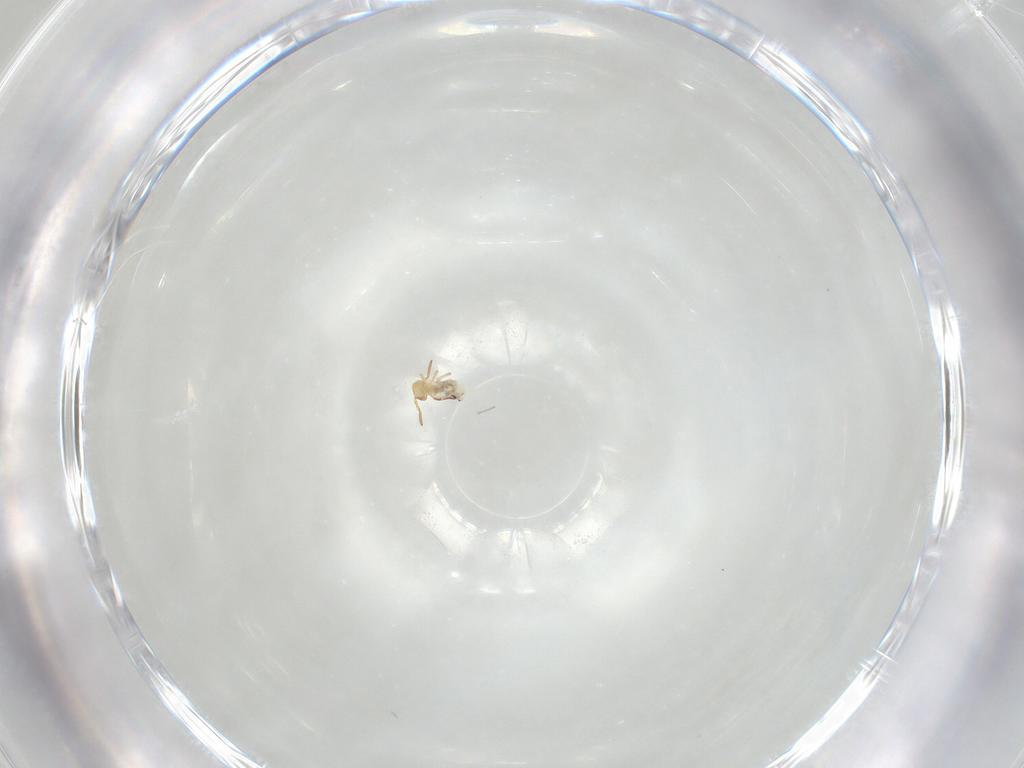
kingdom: Animalia
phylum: Arthropoda
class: Collembola
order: Symphypleona
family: Bourletiellidae
